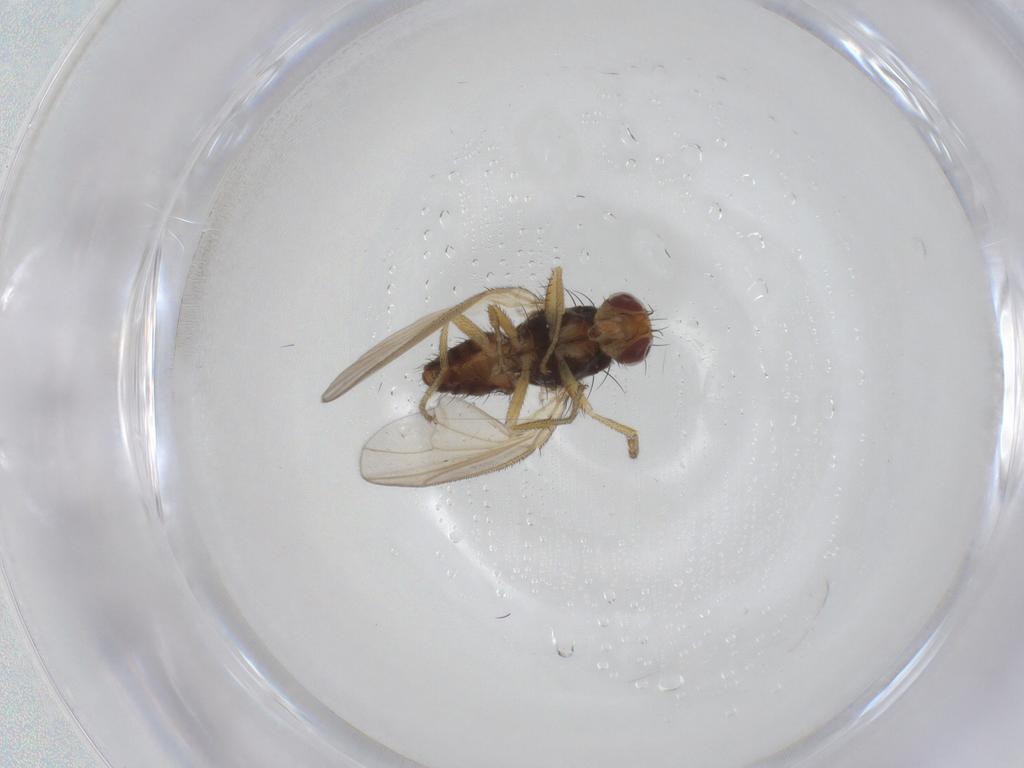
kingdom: Animalia
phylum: Arthropoda
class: Insecta
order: Diptera
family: Heleomyzidae
